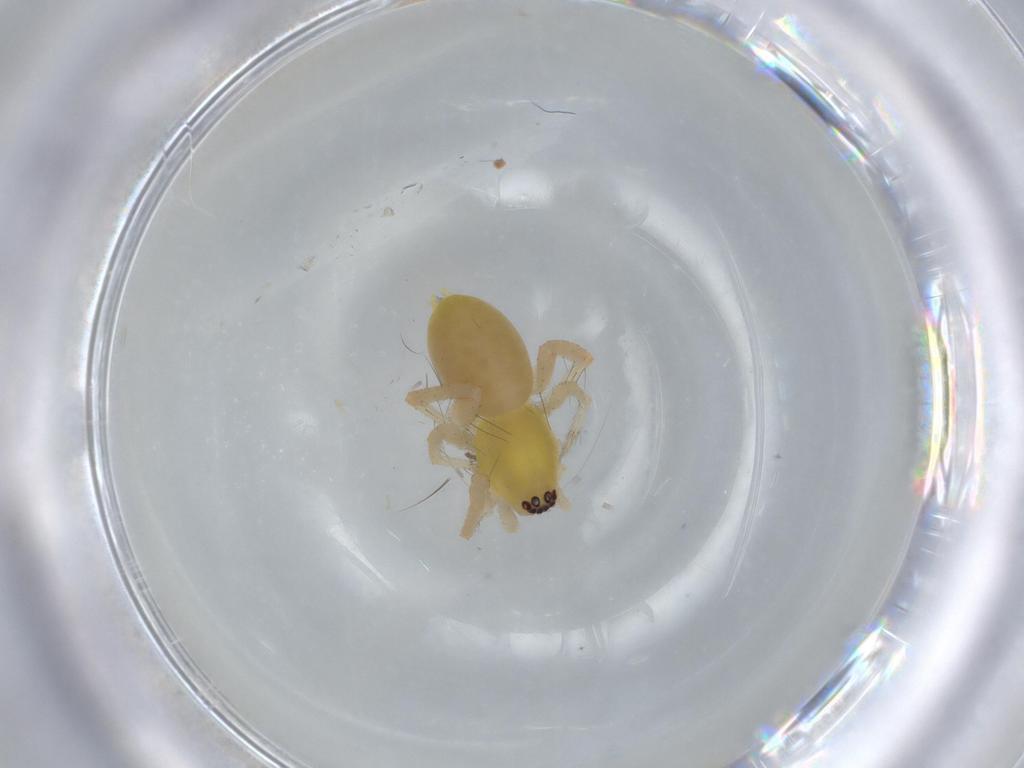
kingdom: Animalia
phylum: Arthropoda
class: Arachnida
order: Araneae
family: Anyphaenidae
